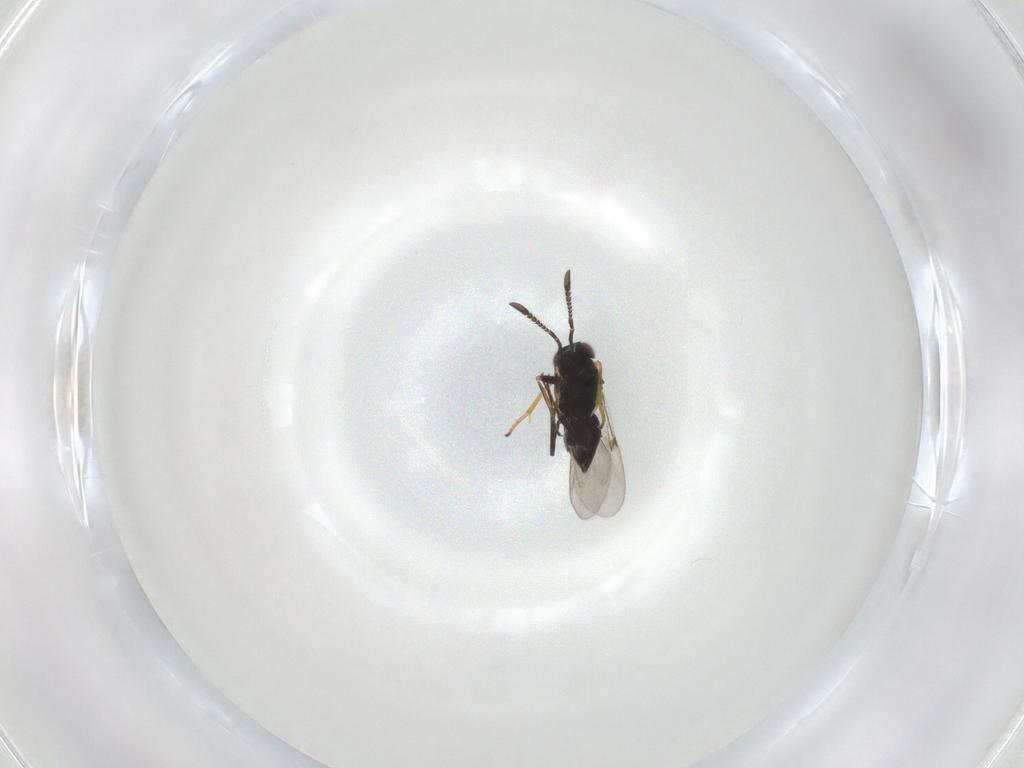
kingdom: Animalia
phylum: Arthropoda
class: Insecta
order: Hymenoptera
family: Encyrtidae
